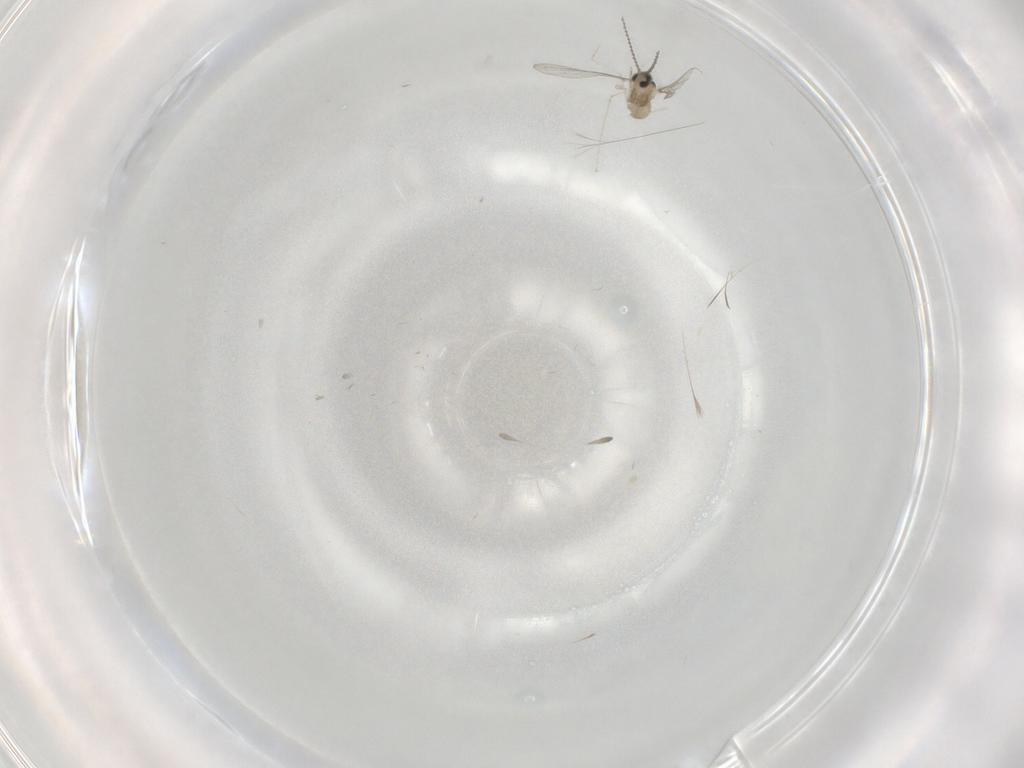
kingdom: Animalia
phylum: Arthropoda
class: Insecta
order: Diptera
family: Cecidomyiidae
